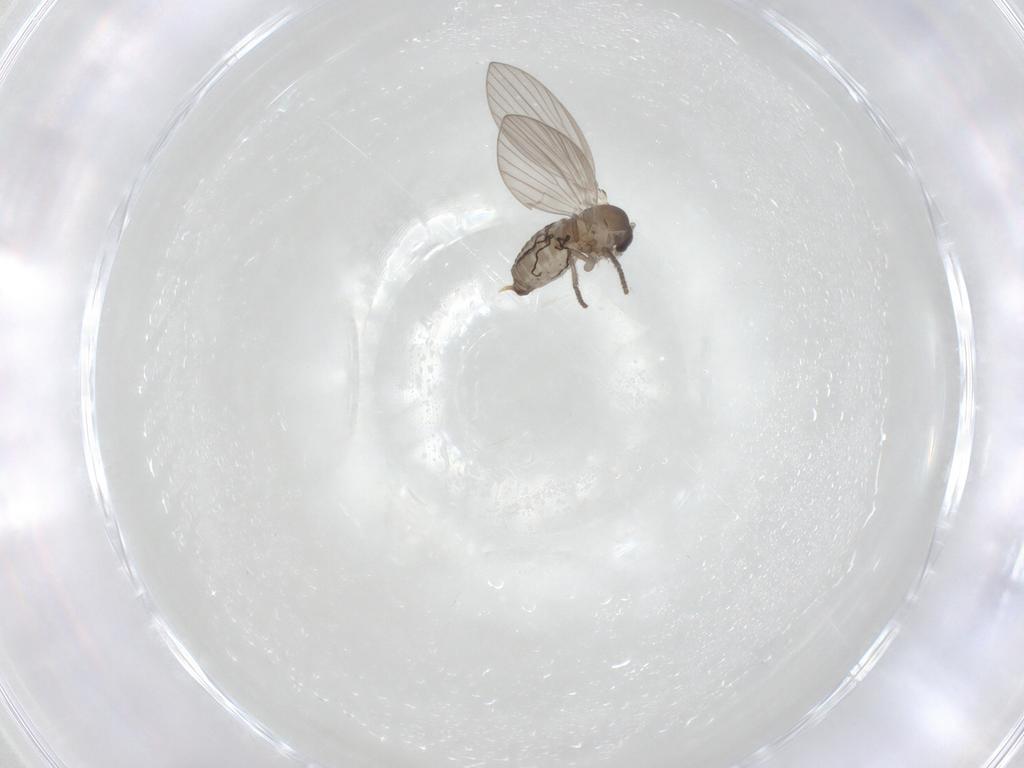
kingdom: Animalia
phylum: Arthropoda
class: Insecta
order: Diptera
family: Psychodidae
